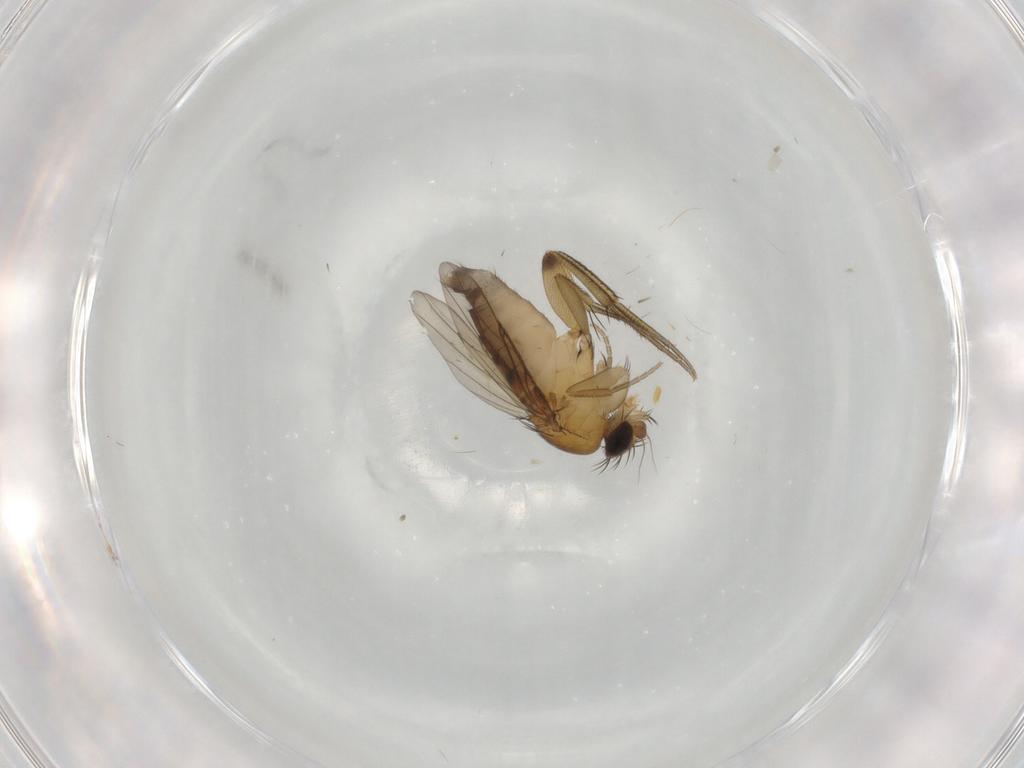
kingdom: Animalia
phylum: Arthropoda
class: Insecta
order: Diptera
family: Phoridae
